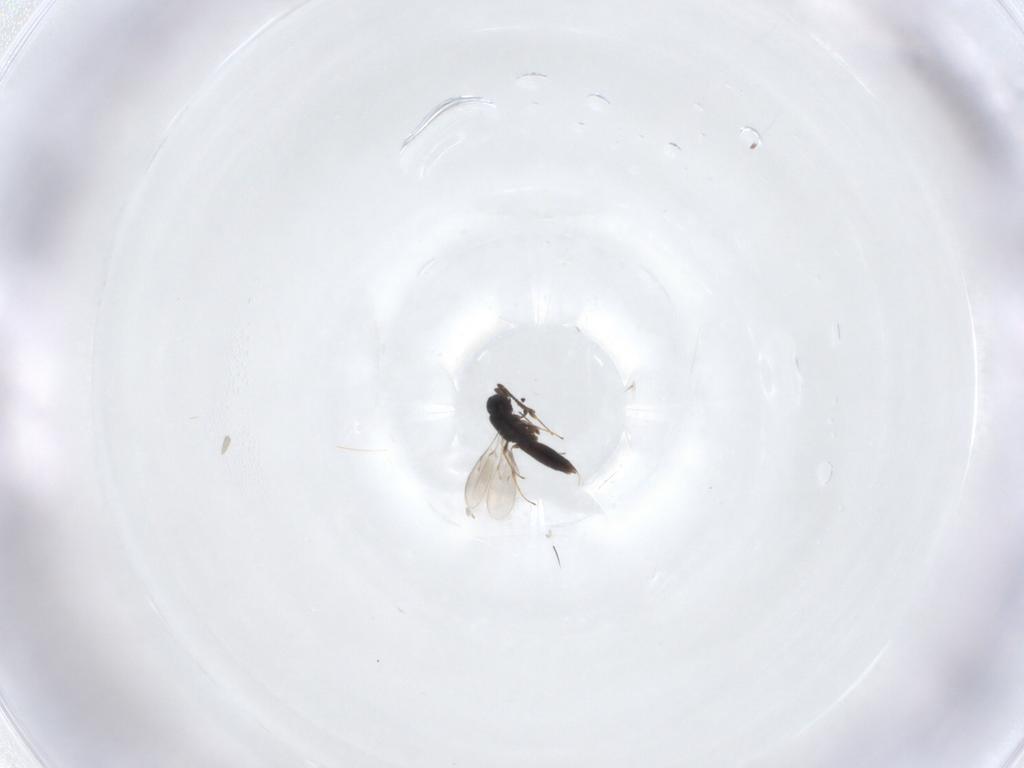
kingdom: Animalia
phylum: Arthropoda
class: Insecta
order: Hymenoptera
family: Scelionidae
